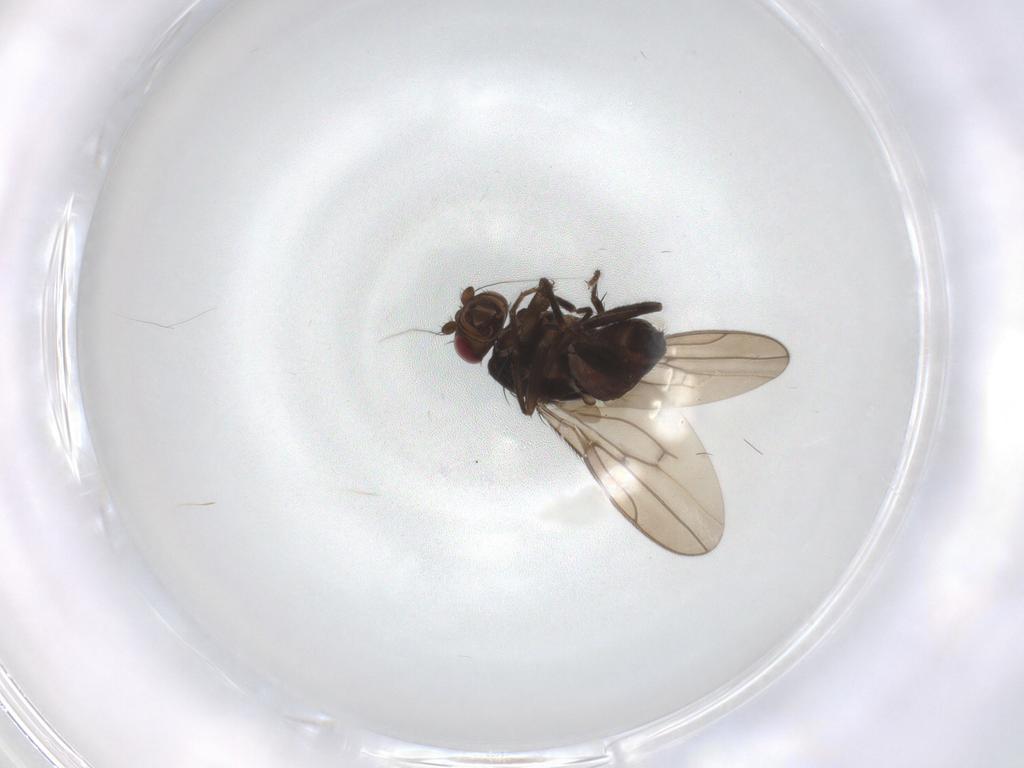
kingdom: Animalia
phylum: Arthropoda
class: Insecta
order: Diptera
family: Sphaeroceridae
